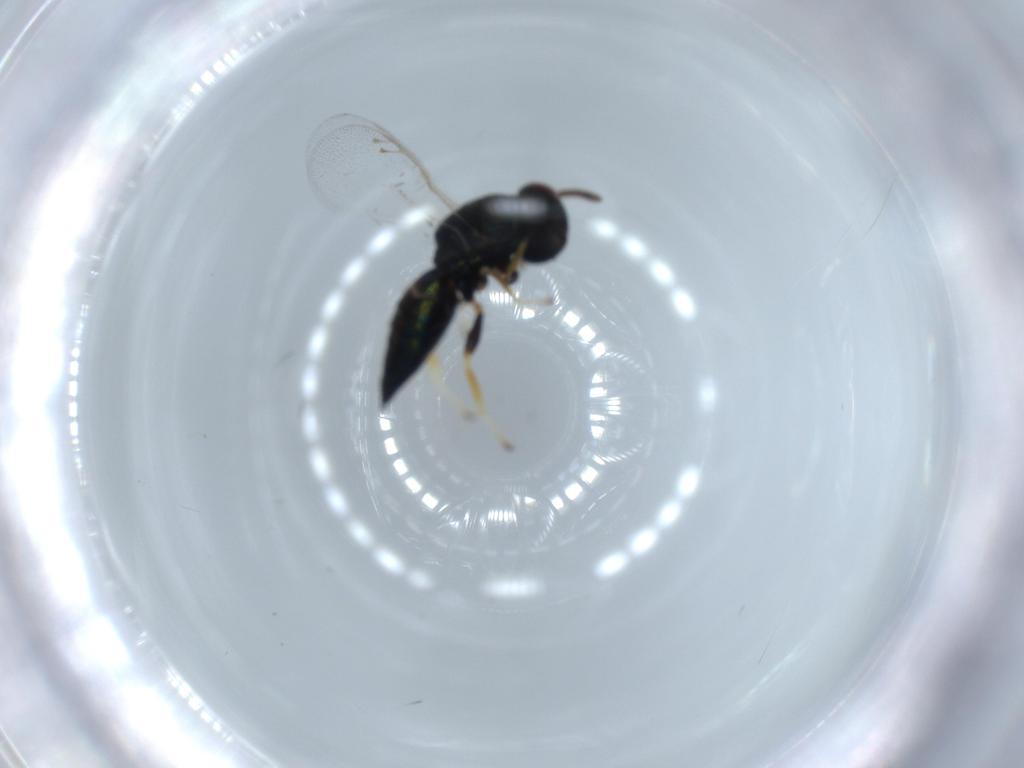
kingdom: Animalia
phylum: Arthropoda
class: Insecta
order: Hymenoptera
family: Pteromalidae
